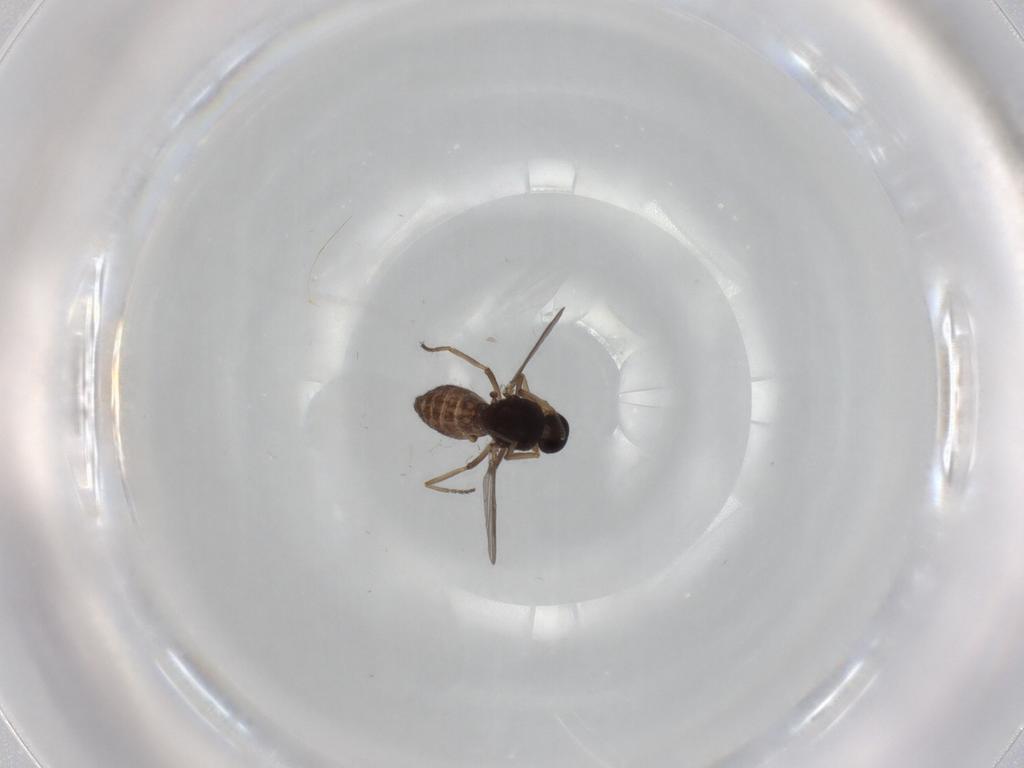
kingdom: Animalia
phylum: Arthropoda
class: Insecta
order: Diptera
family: Ceratopogonidae
